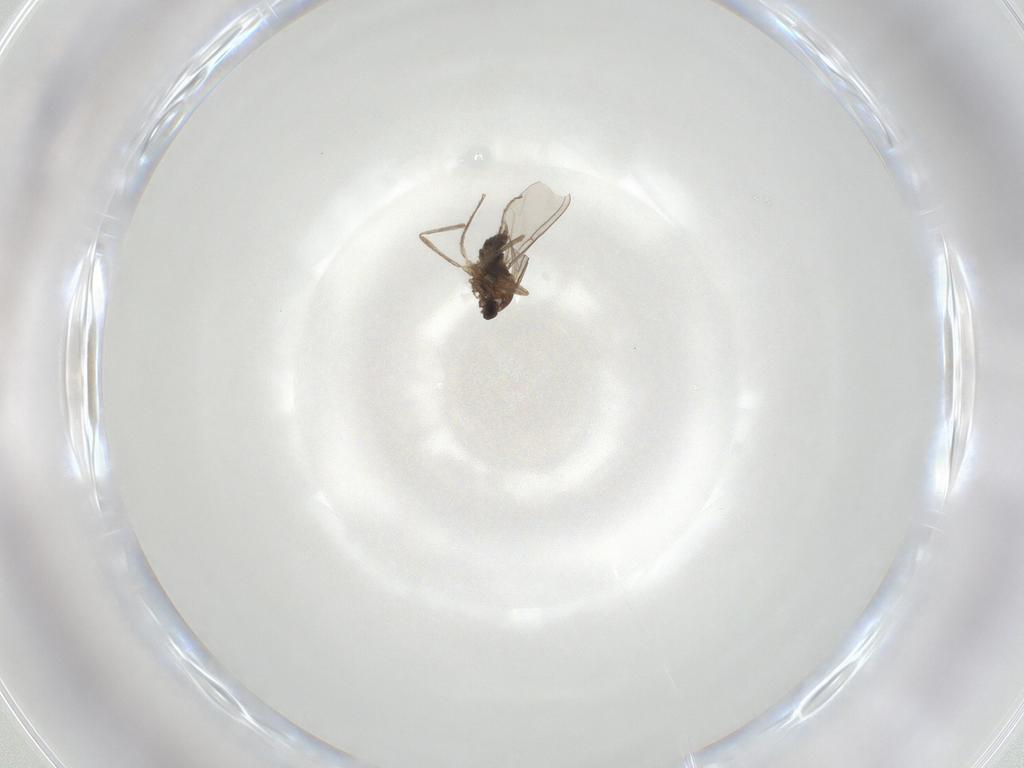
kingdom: Animalia
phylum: Arthropoda
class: Insecta
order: Diptera
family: Cecidomyiidae
